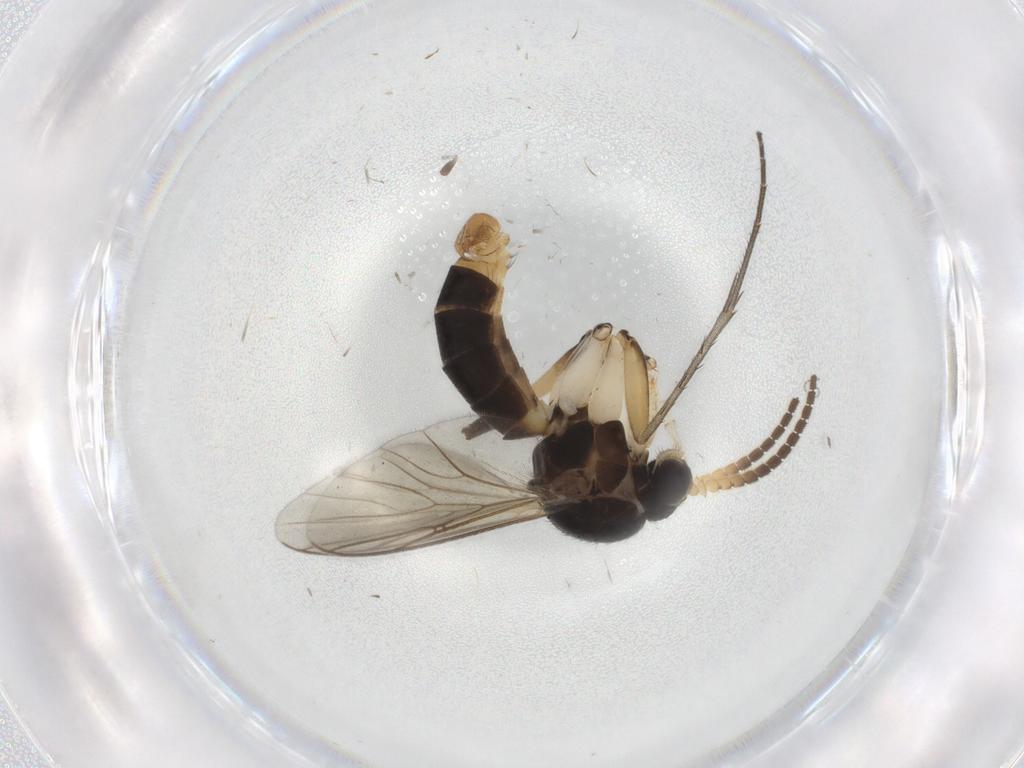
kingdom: Animalia
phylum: Arthropoda
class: Insecta
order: Diptera
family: Cecidomyiidae
